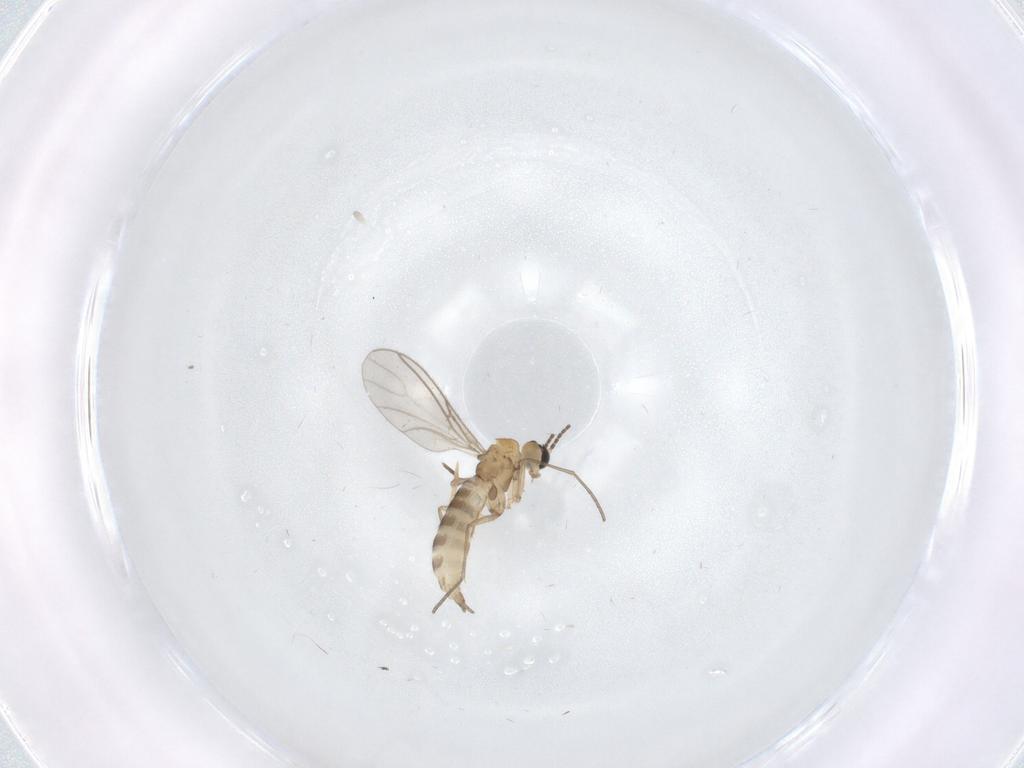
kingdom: Animalia
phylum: Arthropoda
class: Insecta
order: Diptera
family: Sciaridae
